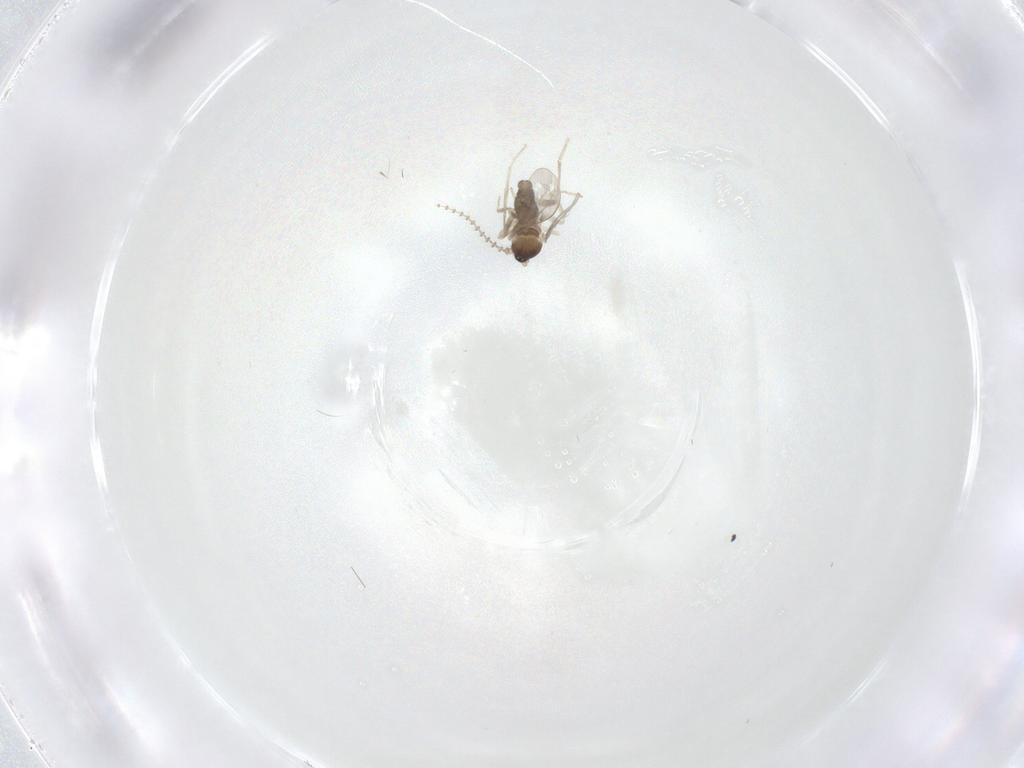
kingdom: Animalia
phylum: Arthropoda
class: Insecta
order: Diptera
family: Cecidomyiidae
